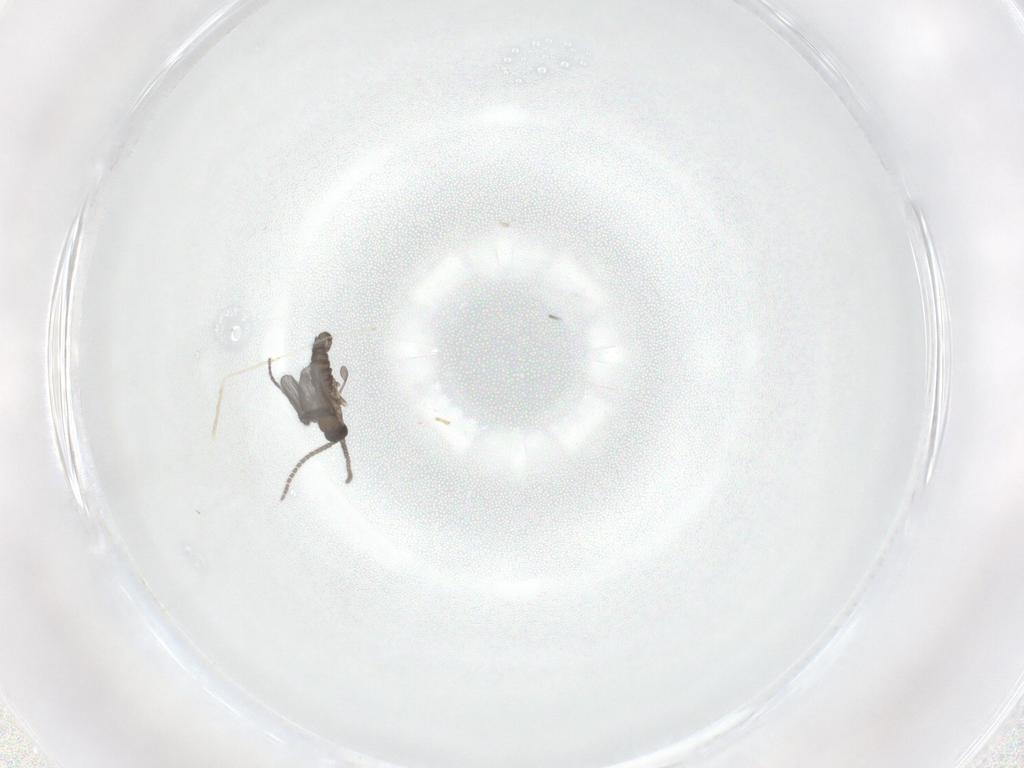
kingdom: Animalia
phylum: Arthropoda
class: Insecta
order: Diptera
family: Sciaridae
